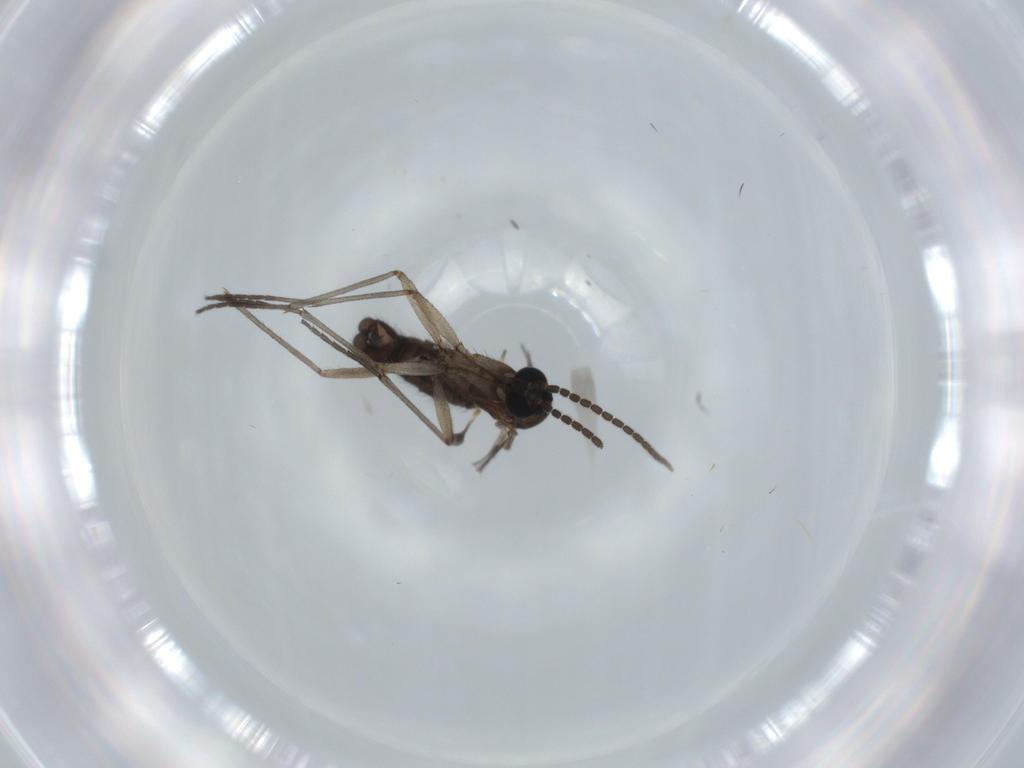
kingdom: Animalia
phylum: Arthropoda
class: Insecta
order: Diptera
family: Sciaridae
